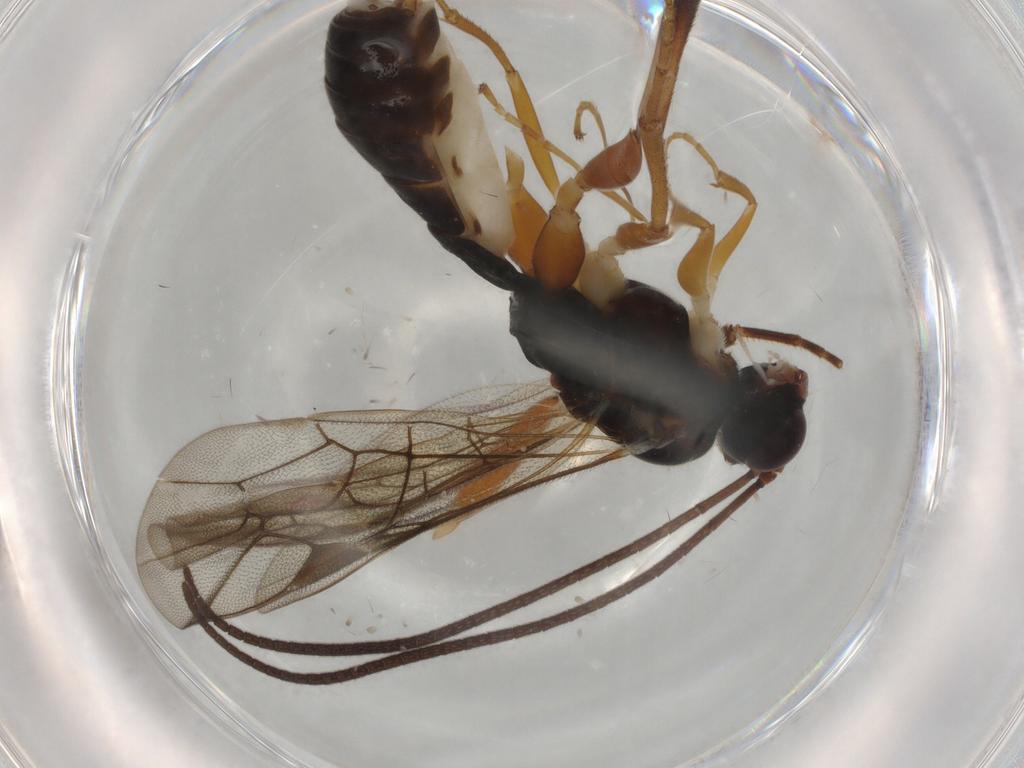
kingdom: Animalia
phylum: Arthropoda
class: Insecta
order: Hymenoptera
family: Ichneumonidae
